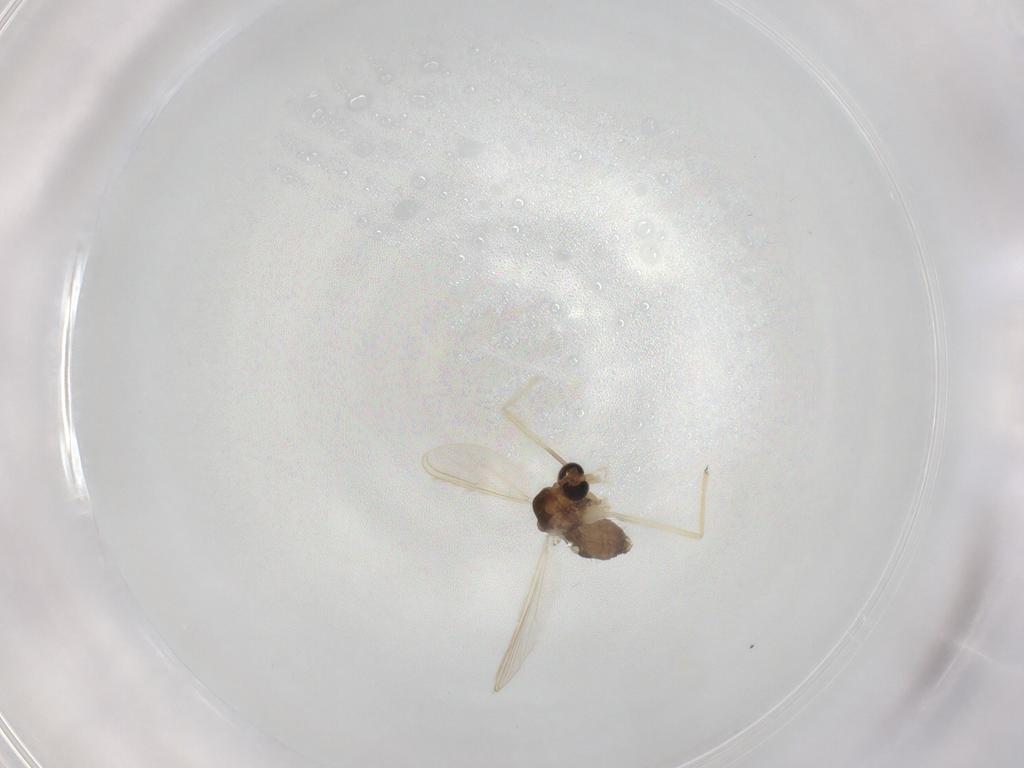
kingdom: Animalia
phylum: Arthropoda
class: Insecta
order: Diptera
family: Chironomidae
